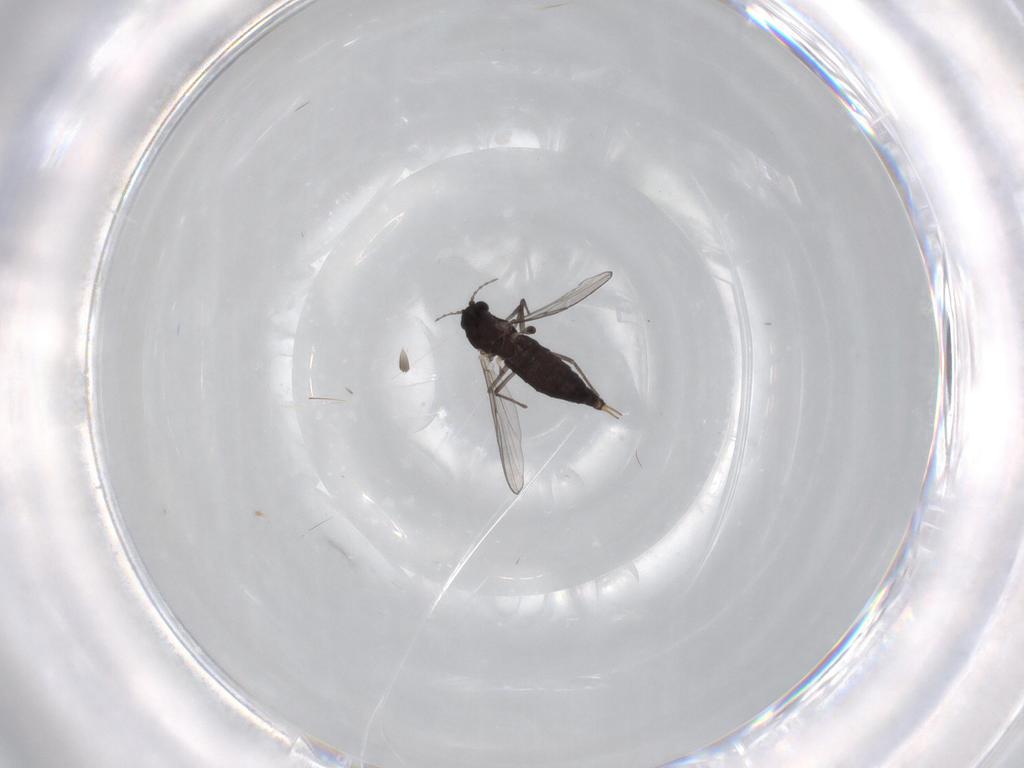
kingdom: Animalia
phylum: Arthropoda
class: Insecta
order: Diptera
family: Chironomidae
